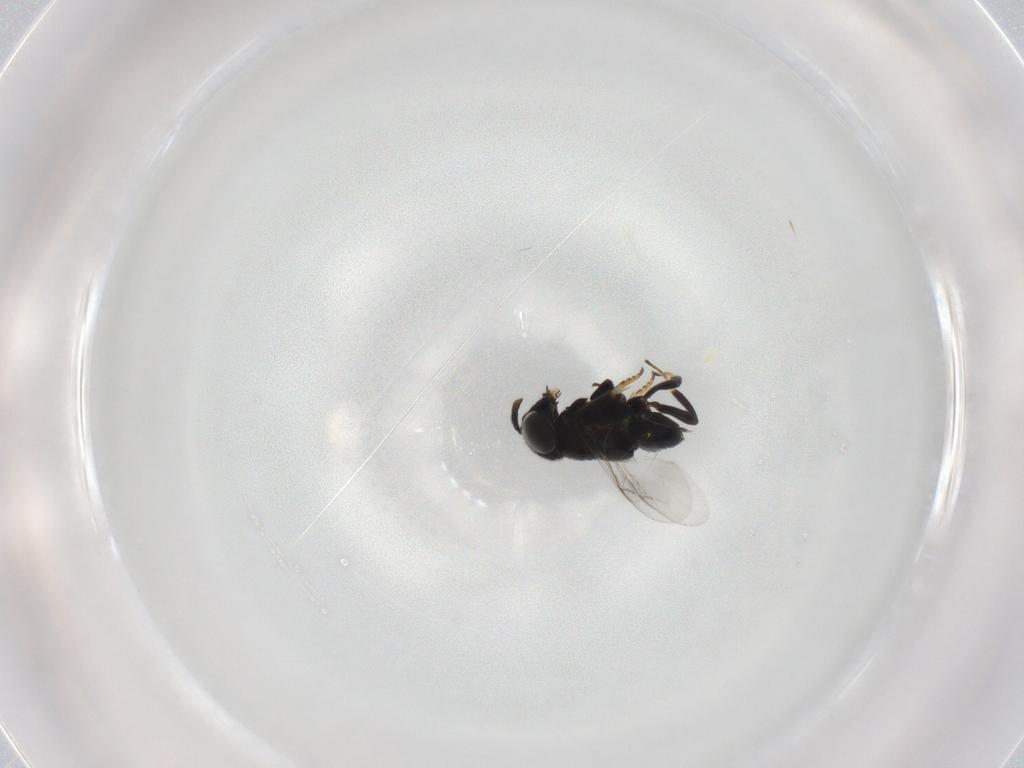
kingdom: Animalia
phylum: Arthropoda
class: Insecta
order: Hymenoptera
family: Encyrtidae
